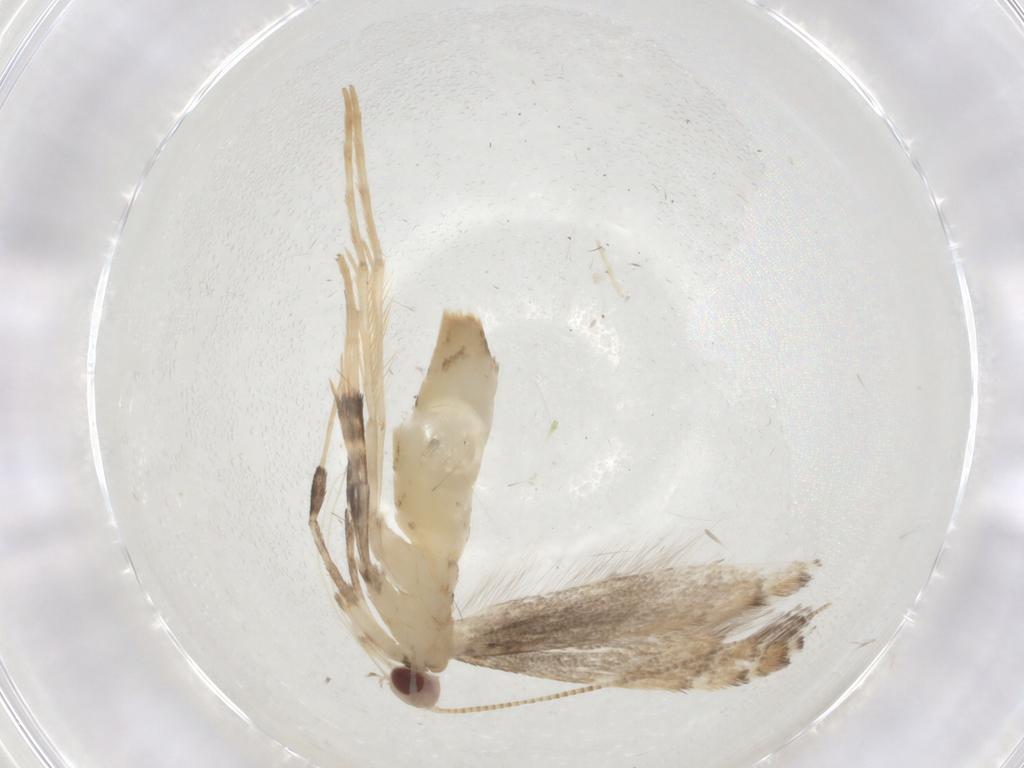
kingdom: Animalia
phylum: Arthropoda
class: Insecta
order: Lepidoptera
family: Gracillariidae
